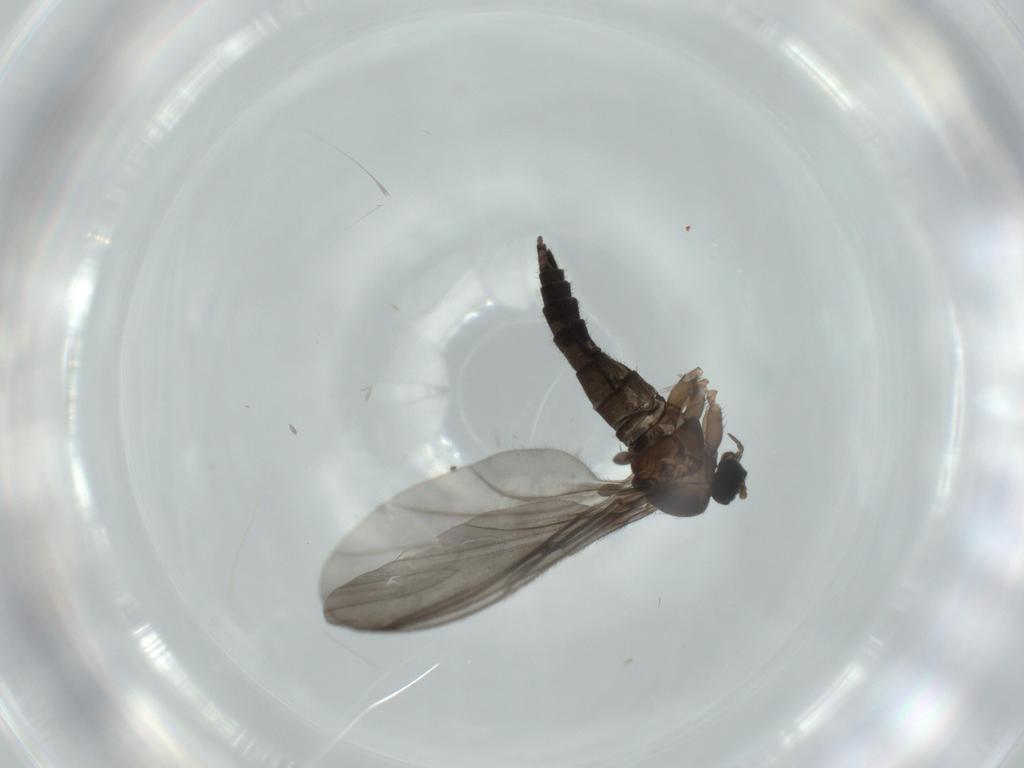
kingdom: Animalia
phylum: Arthropoda
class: Insecta
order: Diptera
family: Sciaridae
